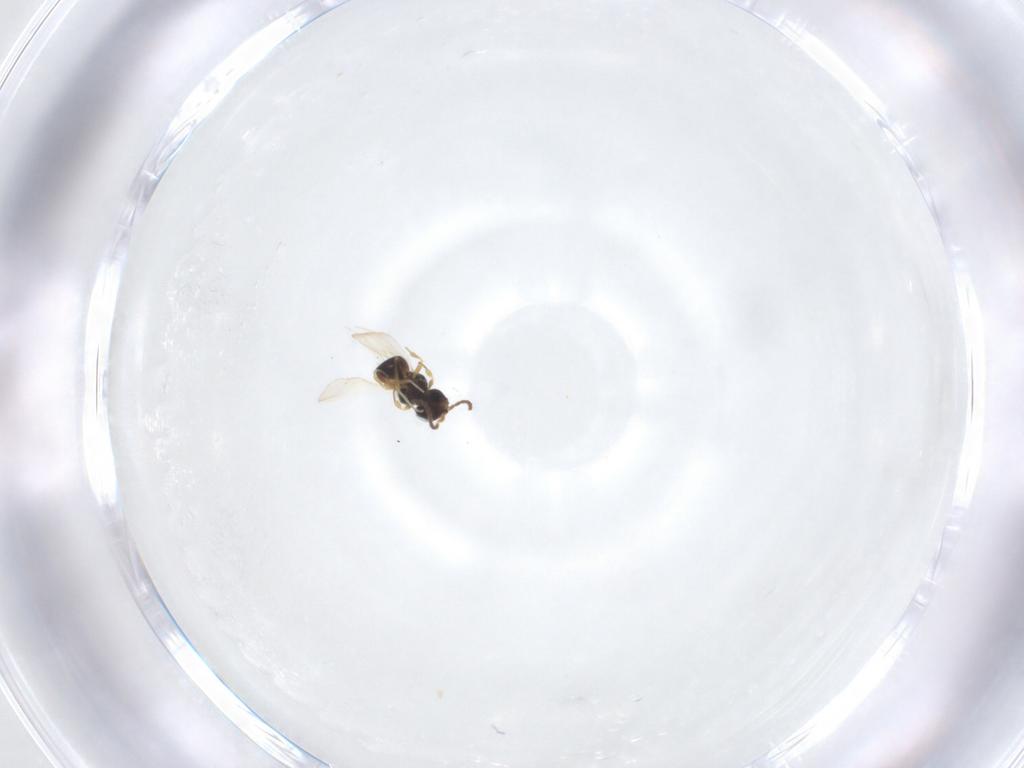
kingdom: Animalia
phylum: Arthropoda
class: Insecta
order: Hymenoptera
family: Scelionidae
